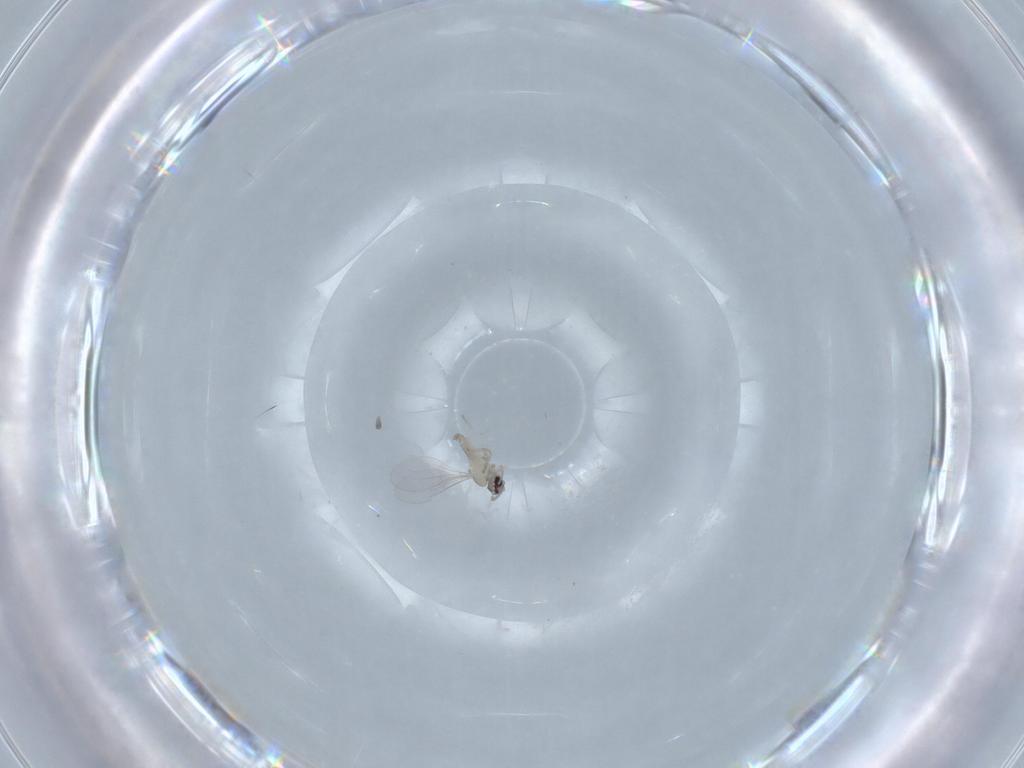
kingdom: Animalia
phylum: Arthropoda
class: Insecta
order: Diptera
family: Cecidomyiidae
